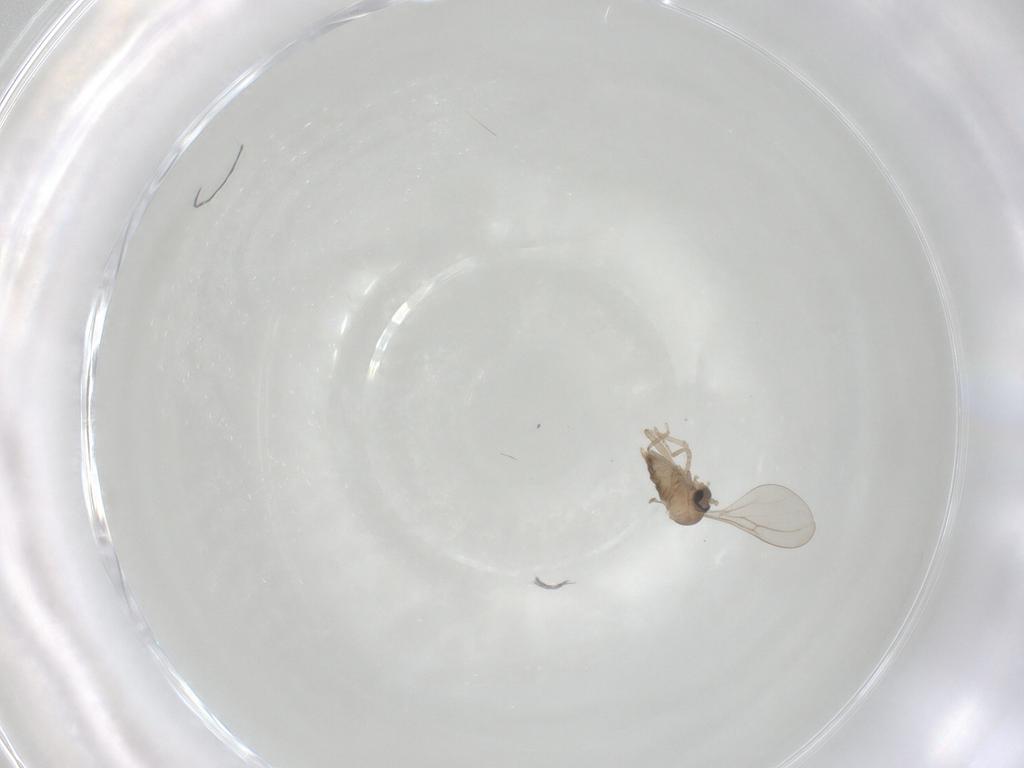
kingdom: Animalia
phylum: Arthropoda
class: Insecta
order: Diptera
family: Cecidomyiidae
